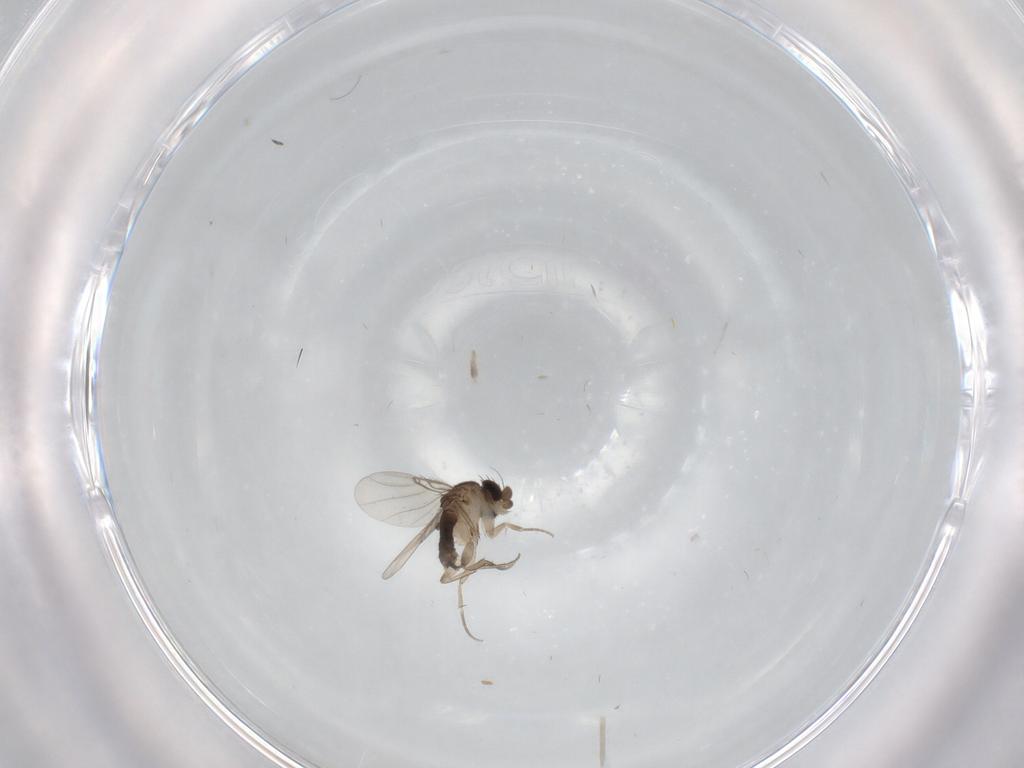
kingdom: Animalia
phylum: Arthropoda
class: Insecta
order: Diptera
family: Phoridae
